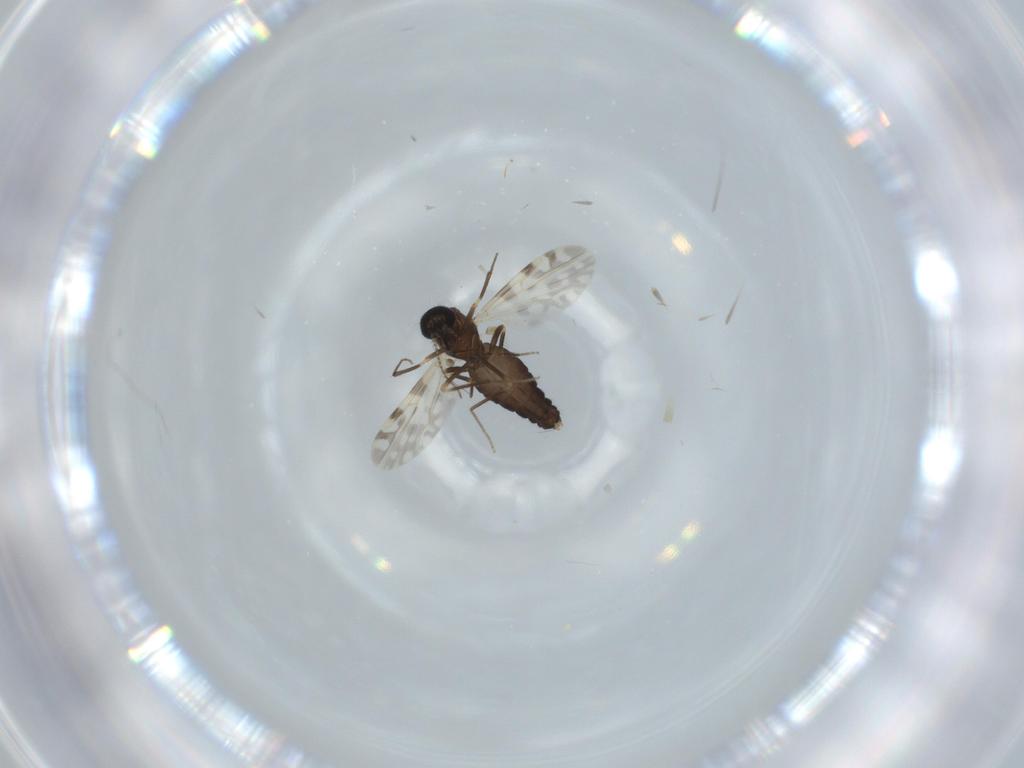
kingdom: Animalia
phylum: Arthropoda
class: Insecta
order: Diptera
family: Ceratopogonidae
